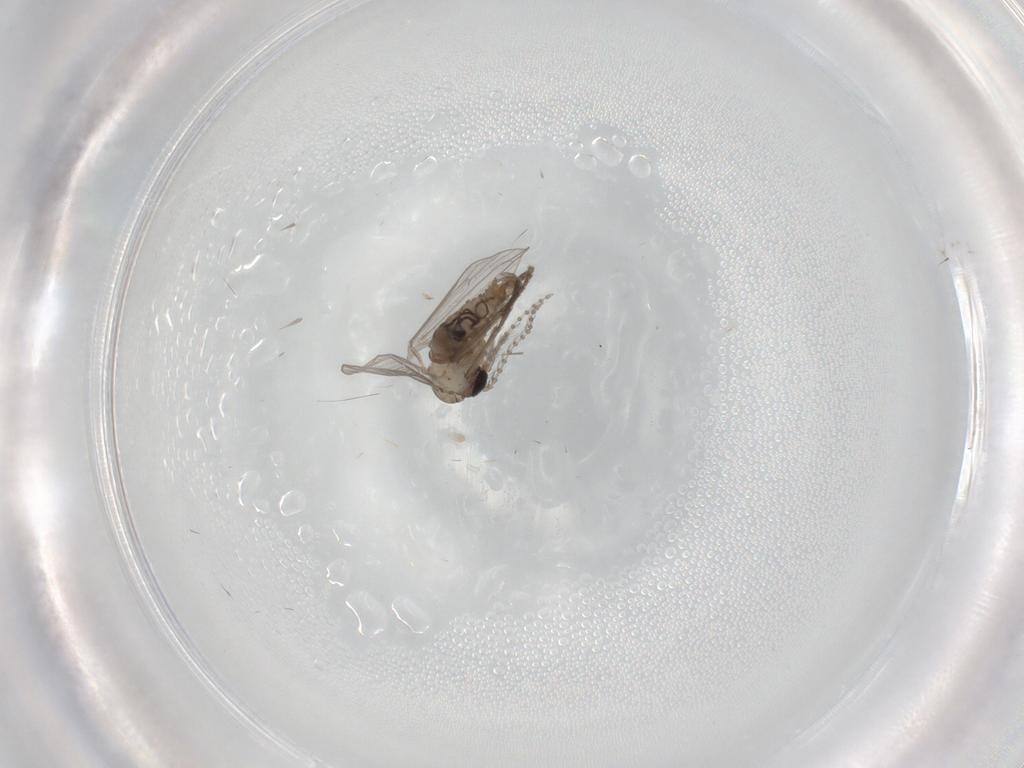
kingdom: Animalia
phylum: Arthropoda
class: Insecta
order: Diptera
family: Psychodidae
